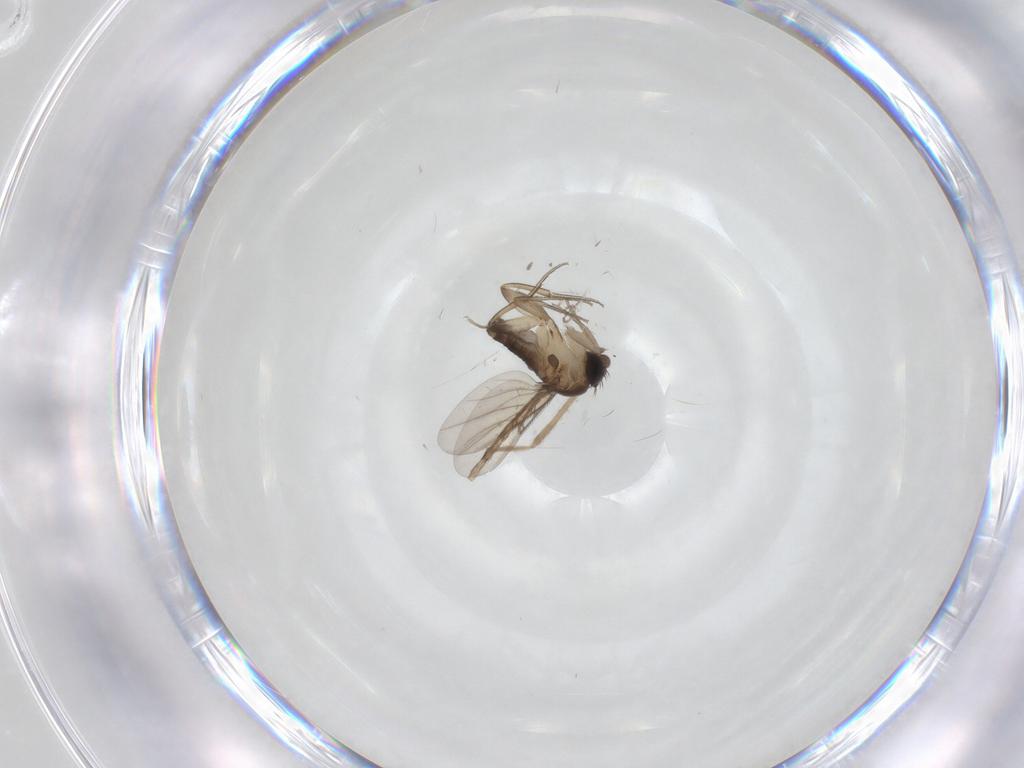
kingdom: Animalia
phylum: Arthropoda
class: Insecta
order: Diptera
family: Chironomidae
